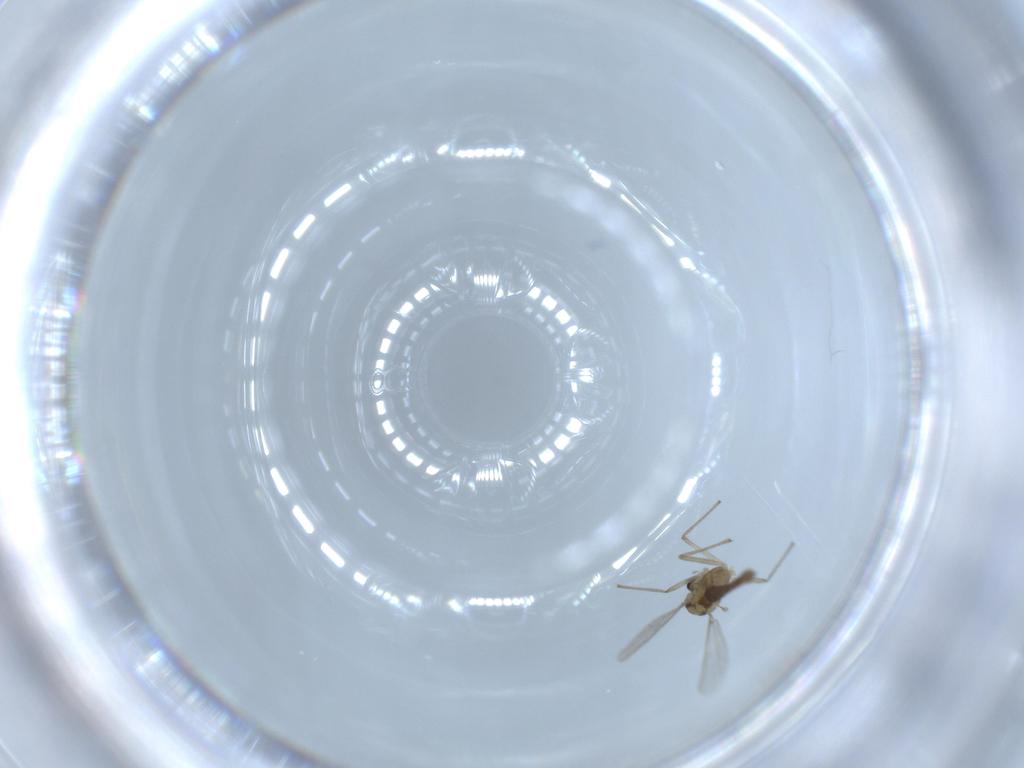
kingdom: Animalia
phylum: Arthropoda
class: Insecta
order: Diptera
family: Chironomidae
